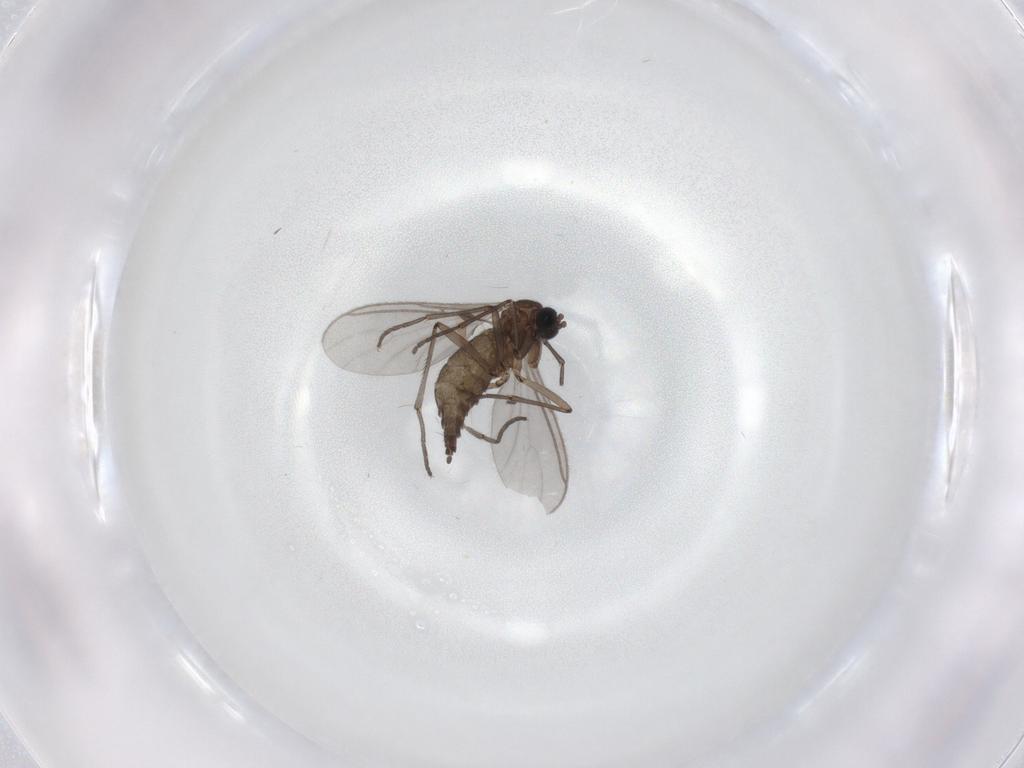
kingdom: Animalia
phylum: Arthropoda
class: Insecta
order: Diptera
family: Sciaridae
